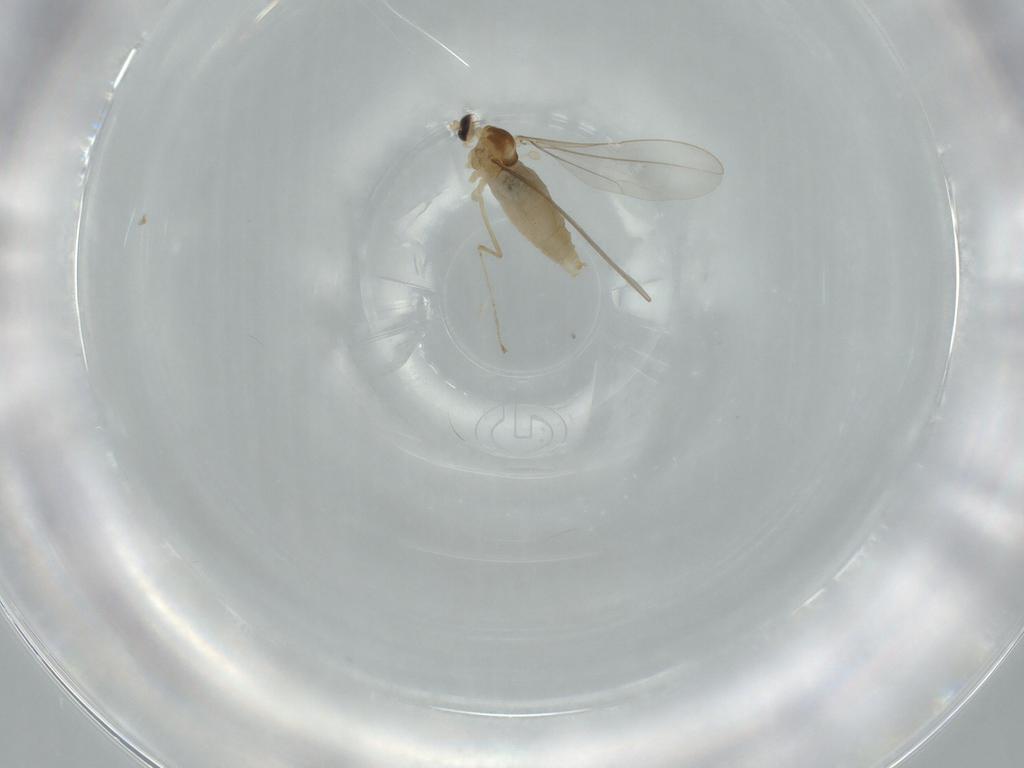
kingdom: Animalia
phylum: Arthropoda
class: Insecta
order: Diptera
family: Cecidomyiidae
